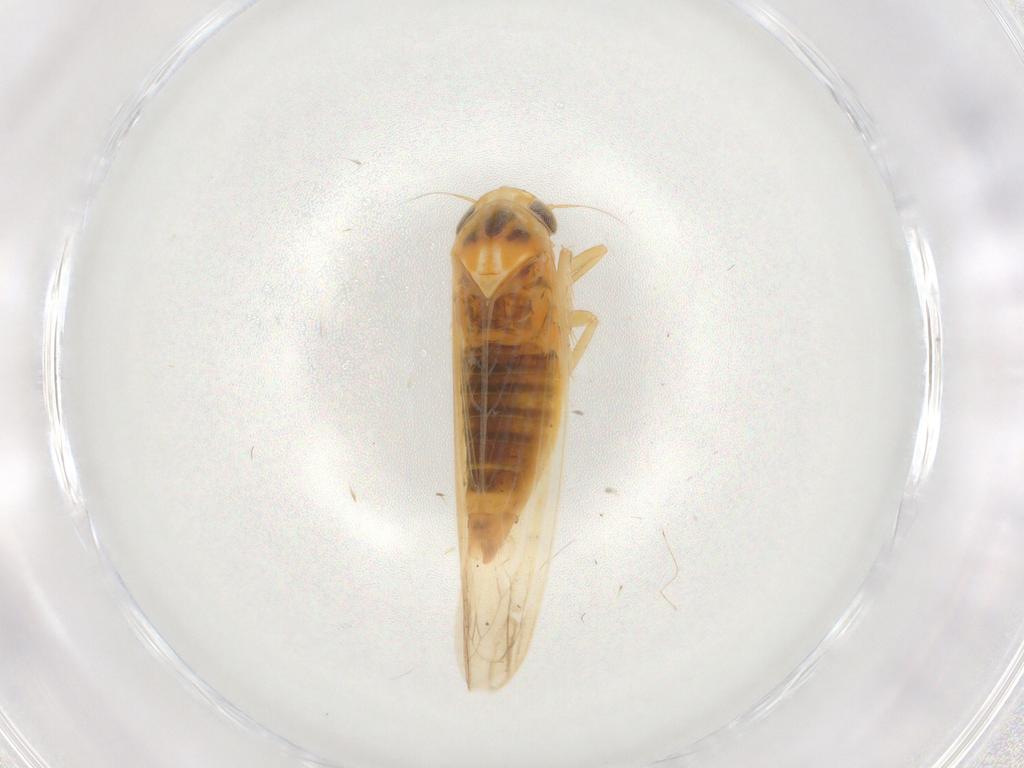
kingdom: Animalia
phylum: Arthropoda
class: Insecta
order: Hemiptera
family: Cicadellidae
